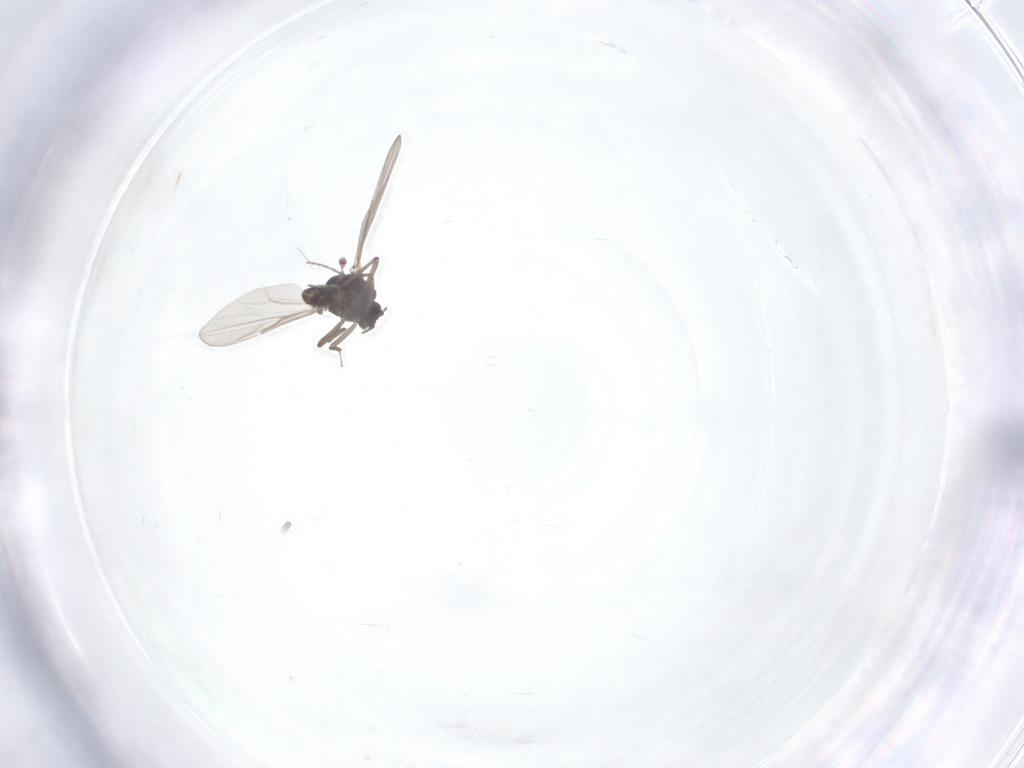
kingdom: Animalia
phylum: Arthropoda
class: Insecta
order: Diptera
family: Ceratopogonidae
